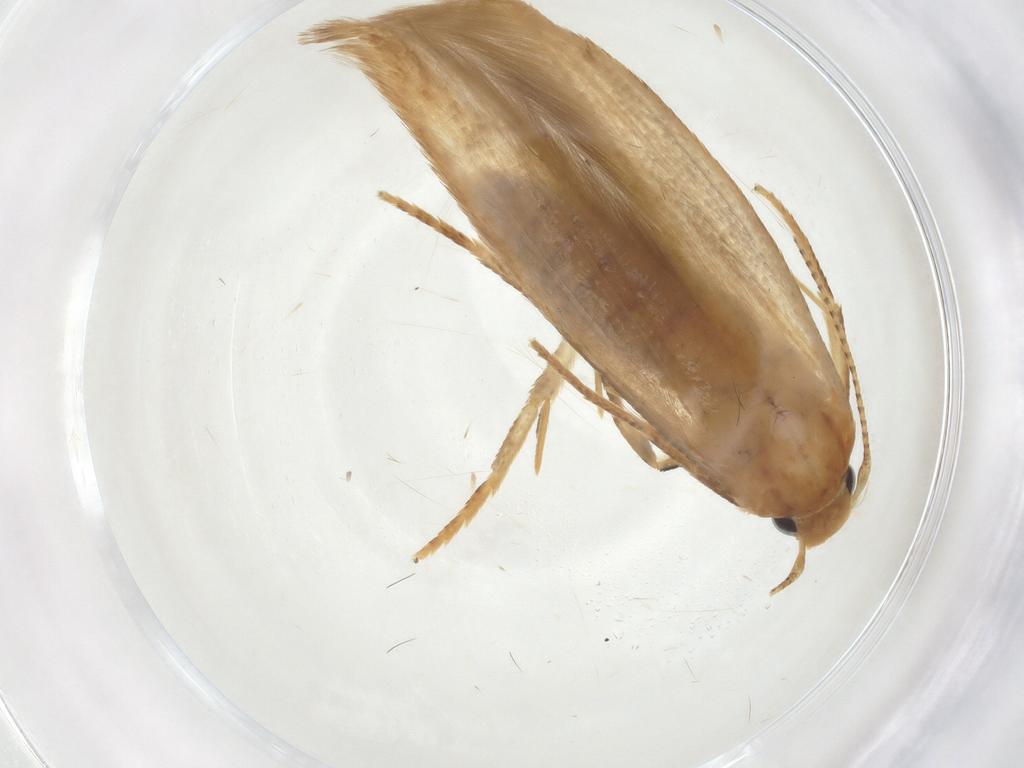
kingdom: Animalia
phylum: Arthropoda
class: Insecta
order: Lepidoptera
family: Stathmopodidae
